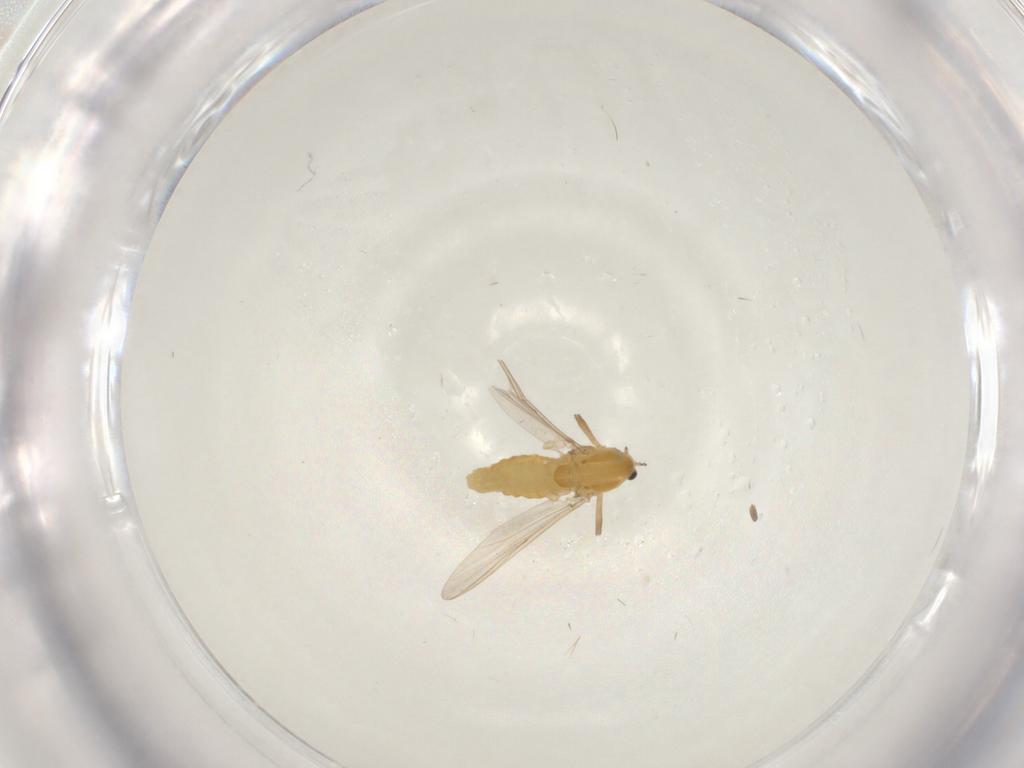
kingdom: Animalia
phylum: Arthropoda
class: Insecta
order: Diptera
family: Chironomidae
